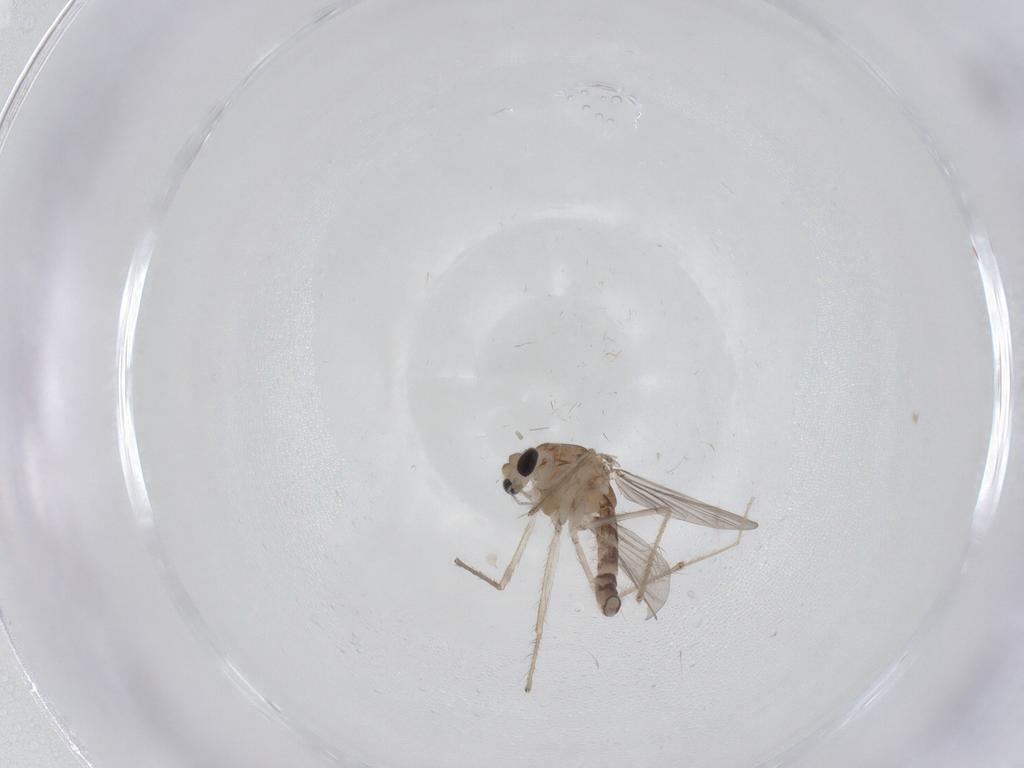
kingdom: Animalia
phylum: Arthropoda
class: Insecta
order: Diptera
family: Chironomidae
